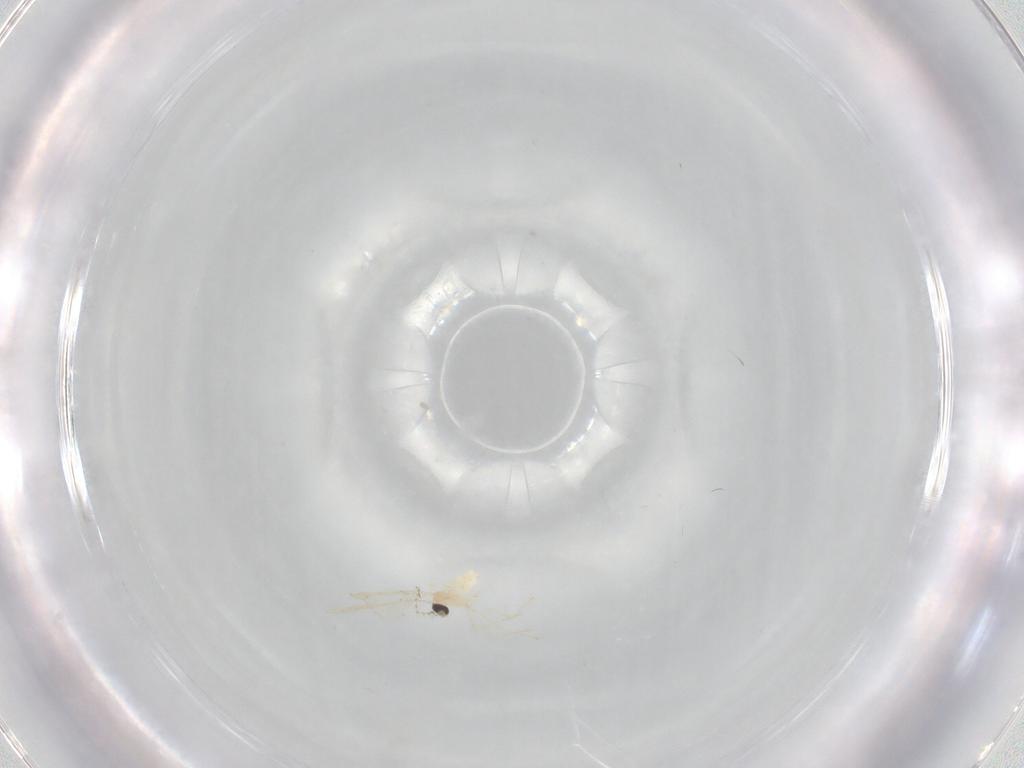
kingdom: Animalia
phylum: Arthropoda
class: Insecta
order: Diptera
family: Cecidomyiidae
